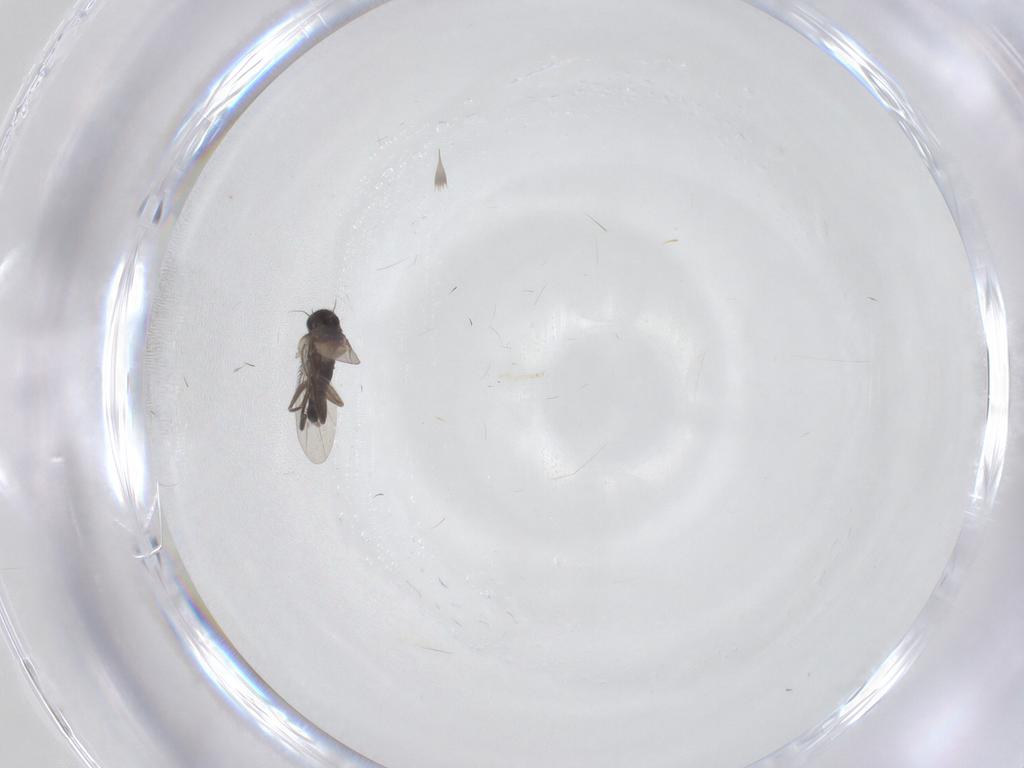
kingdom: Animalia
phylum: Arthropoda
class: Insecta
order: Diptera
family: Phoridae
